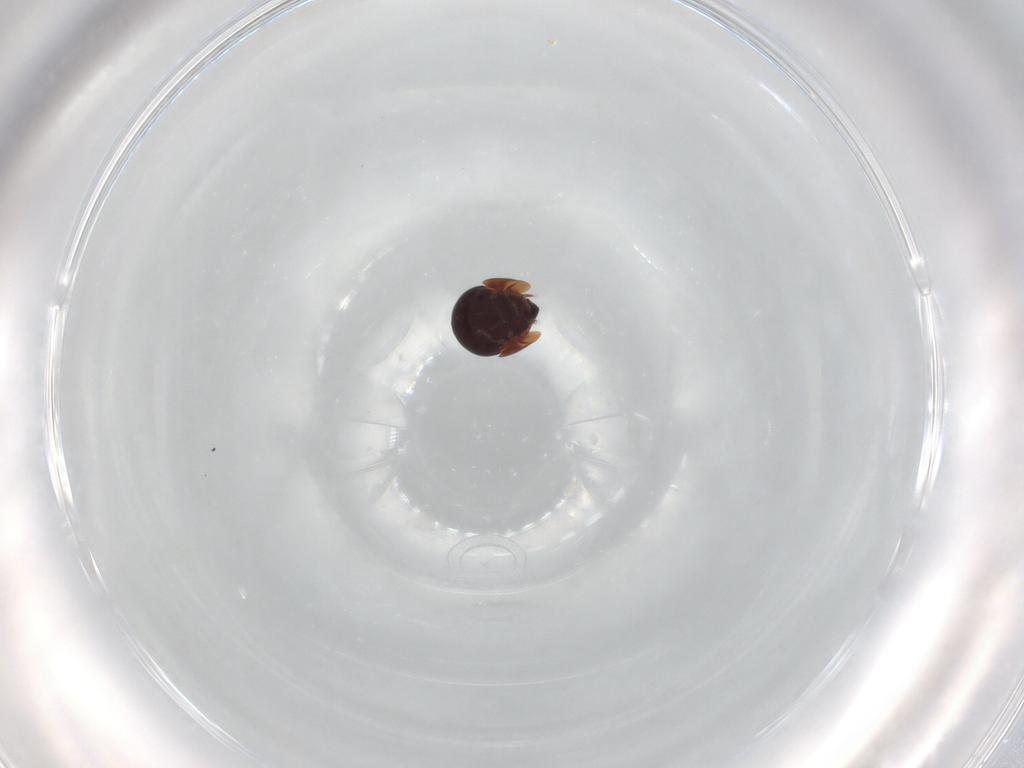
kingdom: Animalia
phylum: Arthropoda
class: Arachnida
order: Sarcoptiformes
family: Galumnidae
